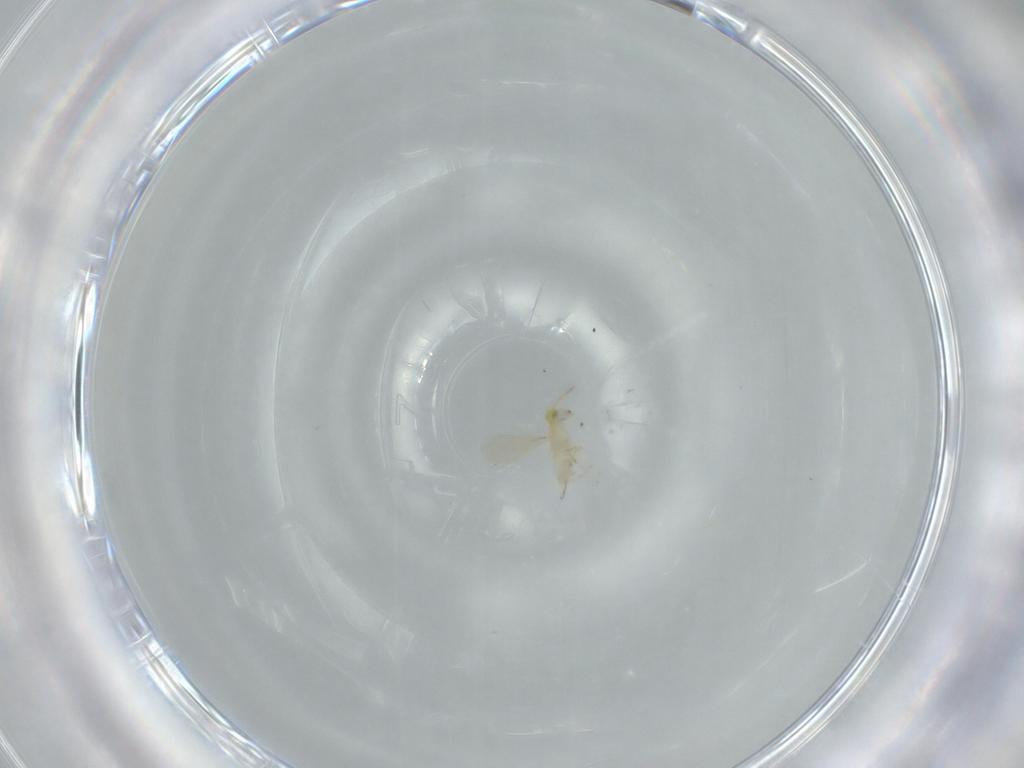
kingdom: Animalia
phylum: Arthropoda
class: Insecta
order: Hymenoptera
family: Aphelinidae
